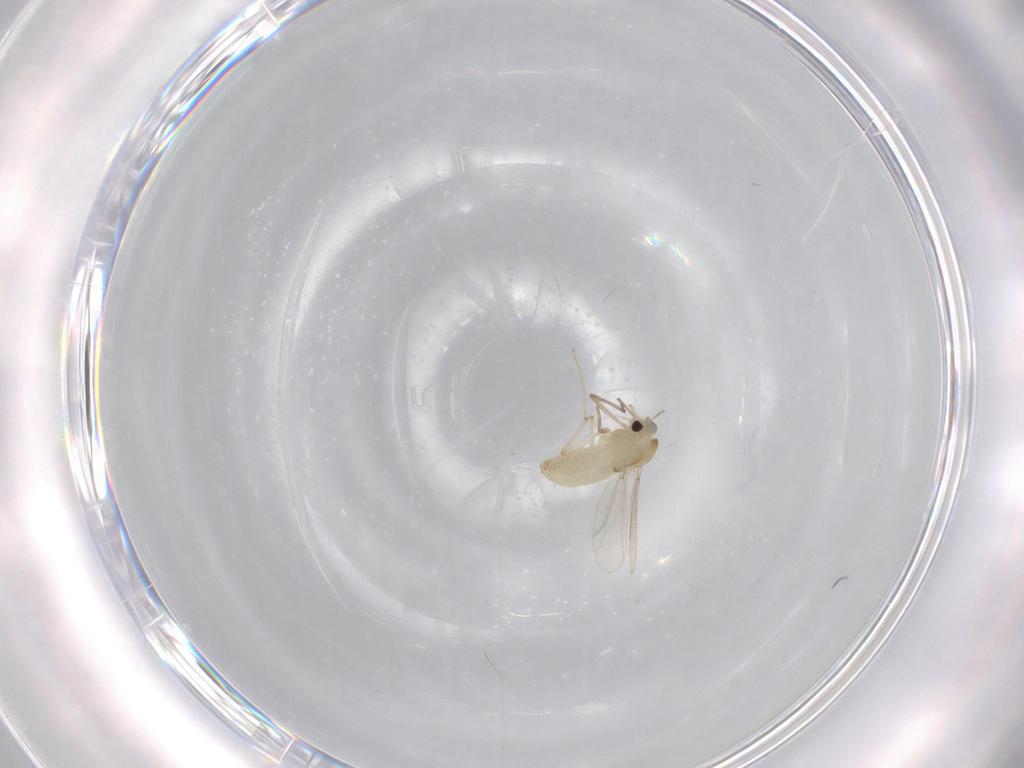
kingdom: Animalia
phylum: Arthropoda
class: Insecta
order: Diptera
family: Chironomidae
